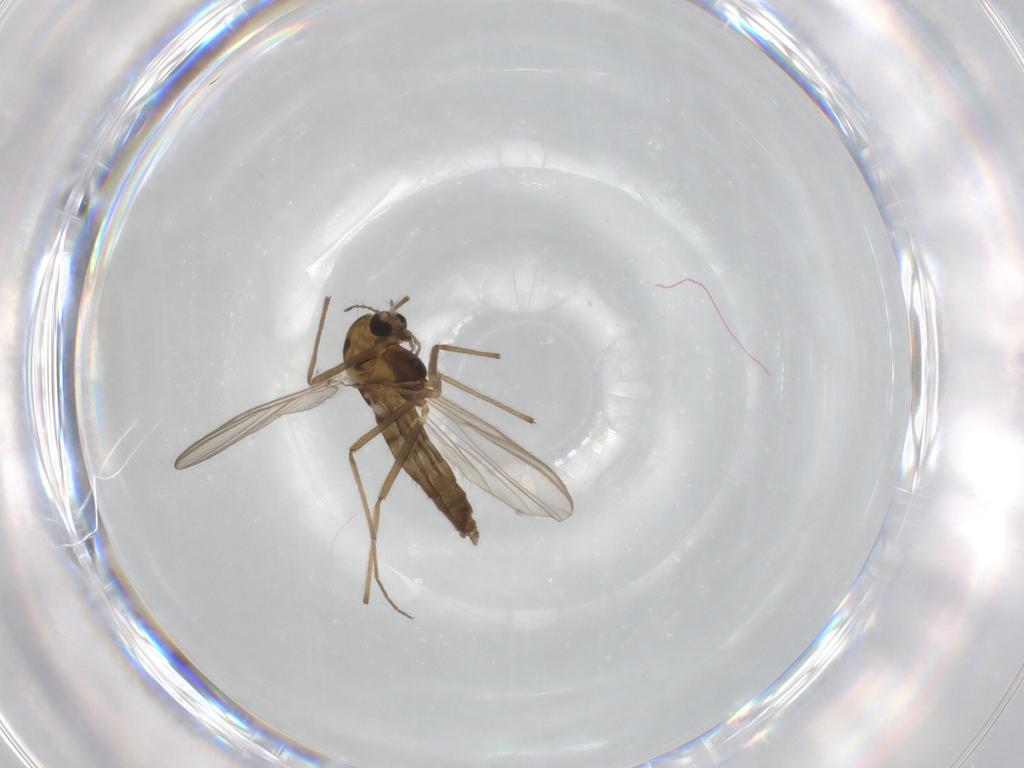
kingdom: Animalia
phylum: Arthropoda
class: Insecta
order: Diptera
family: Chironomidae
